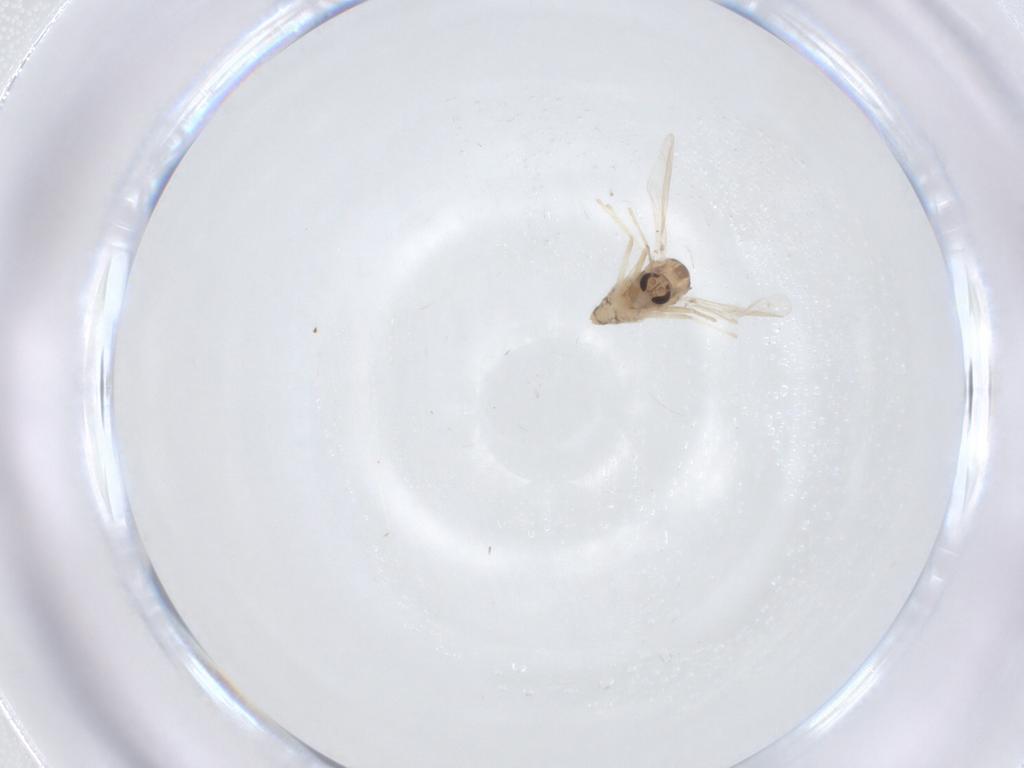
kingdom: Animalia
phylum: Arthropoda
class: Insecta
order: Diptera
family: Chironomidae
